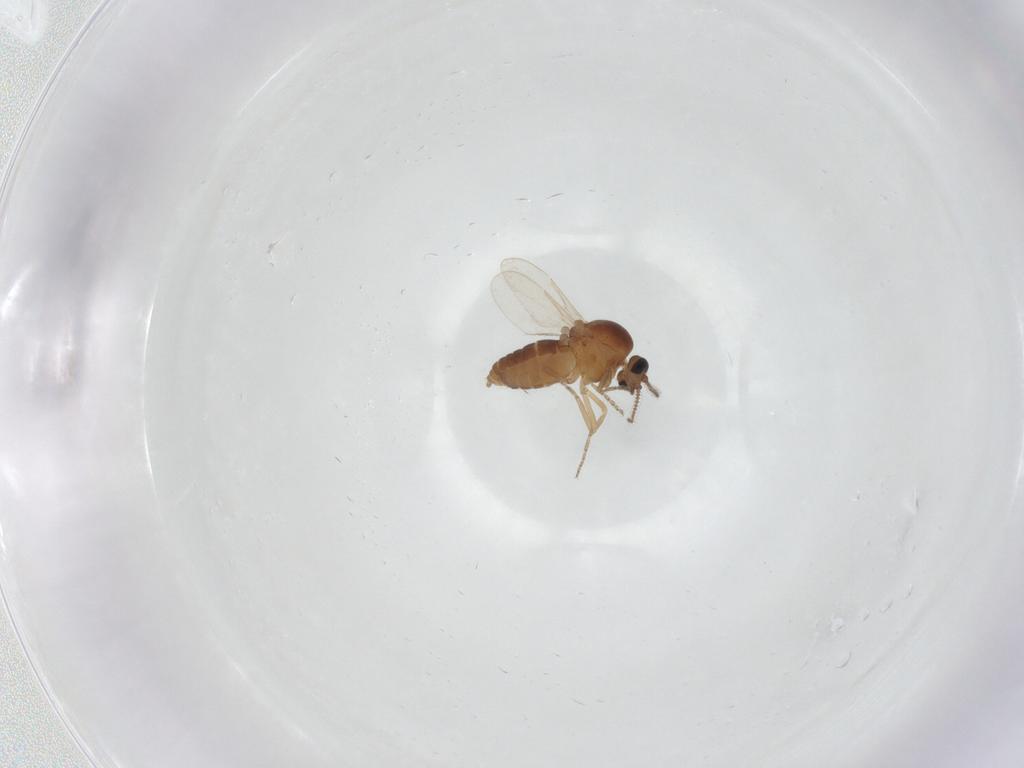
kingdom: Animalia
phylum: Arthropoda
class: Insecta
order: Diptera
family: Ceratopogonidae
